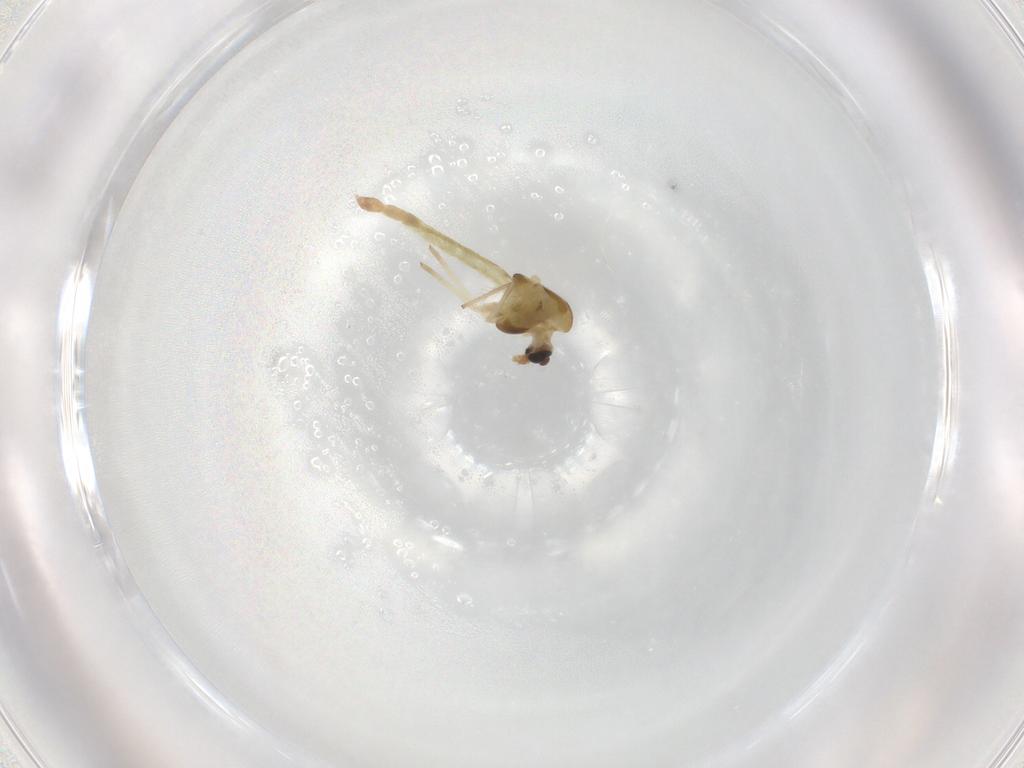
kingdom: Animalia
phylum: Arthropoda
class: Insecta
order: Diptera
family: Chironomidae
